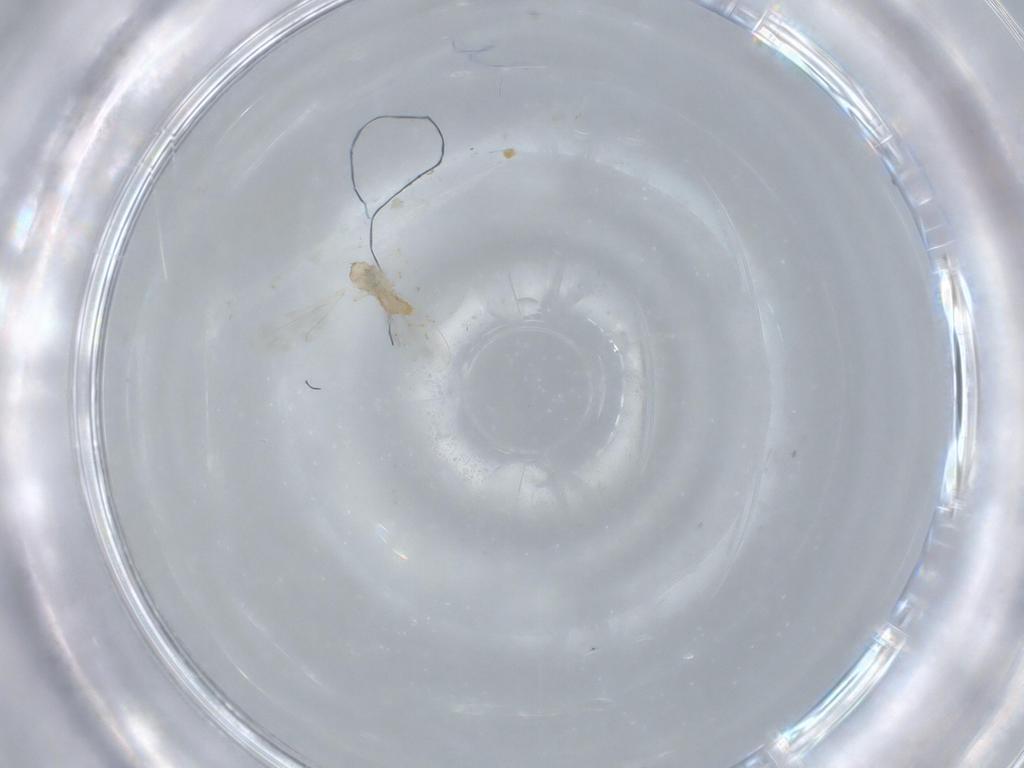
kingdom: Animalia
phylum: Arthropoda
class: Insecta
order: Diptera
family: Cecidomyiidae
